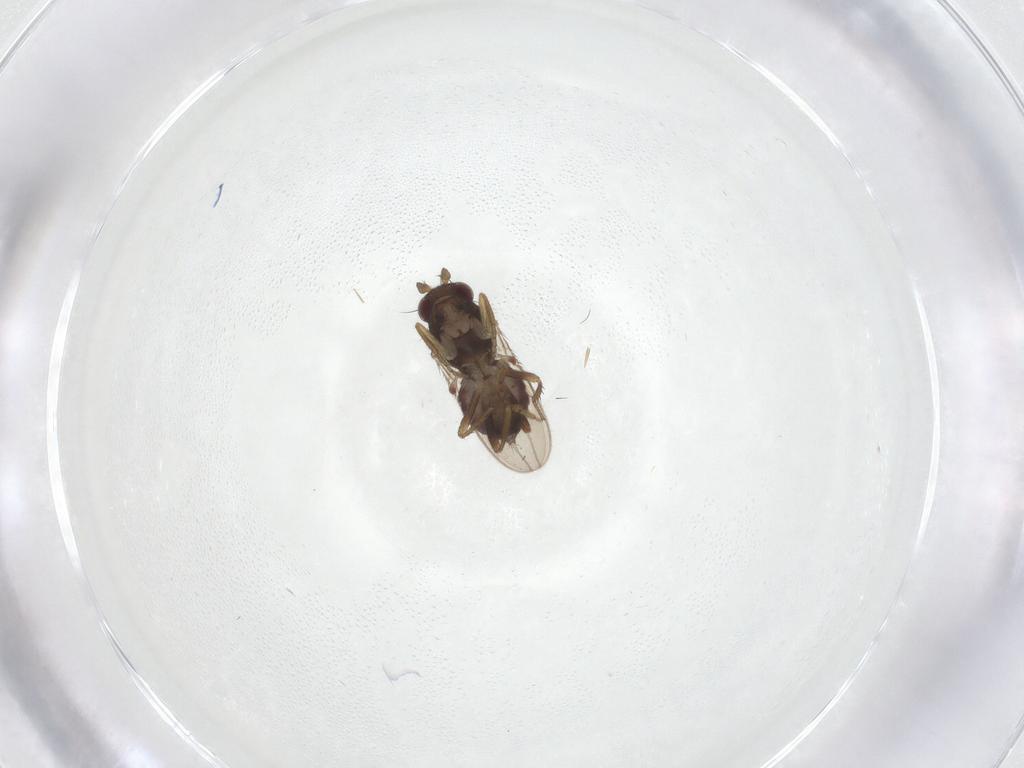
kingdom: Animalia
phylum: Arthropoda
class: Insecta
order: Diptera
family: Sphaeroceridae
